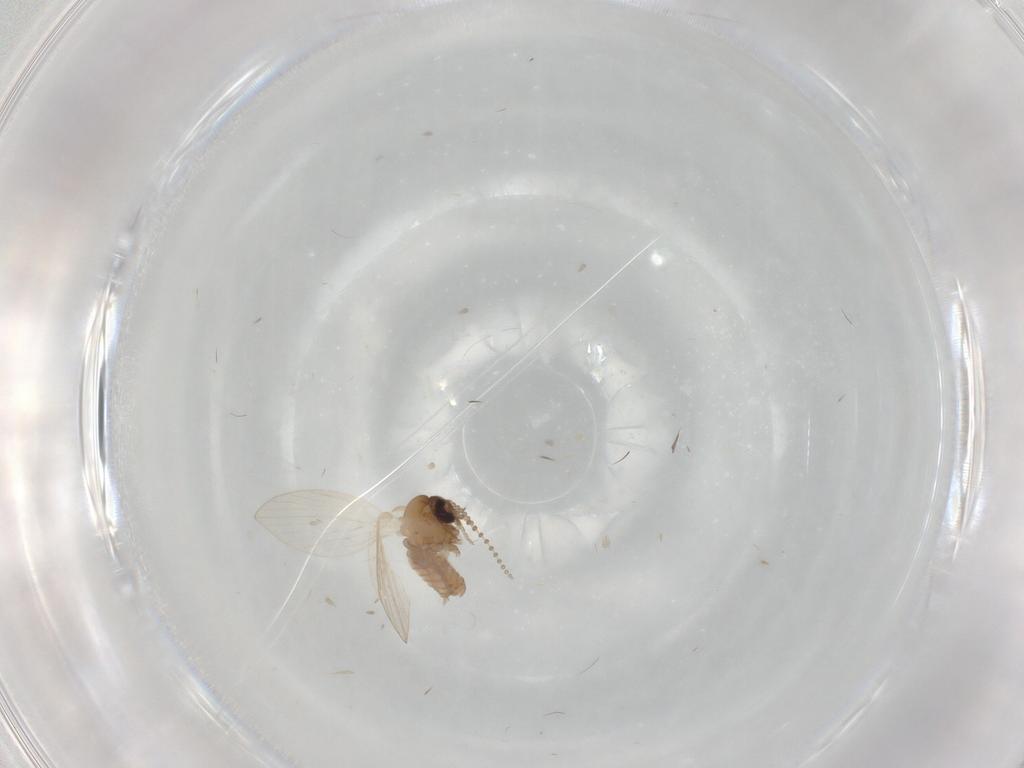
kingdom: Animalia
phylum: Arthropoda
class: Insecta
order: Diptera
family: Psychodidae
